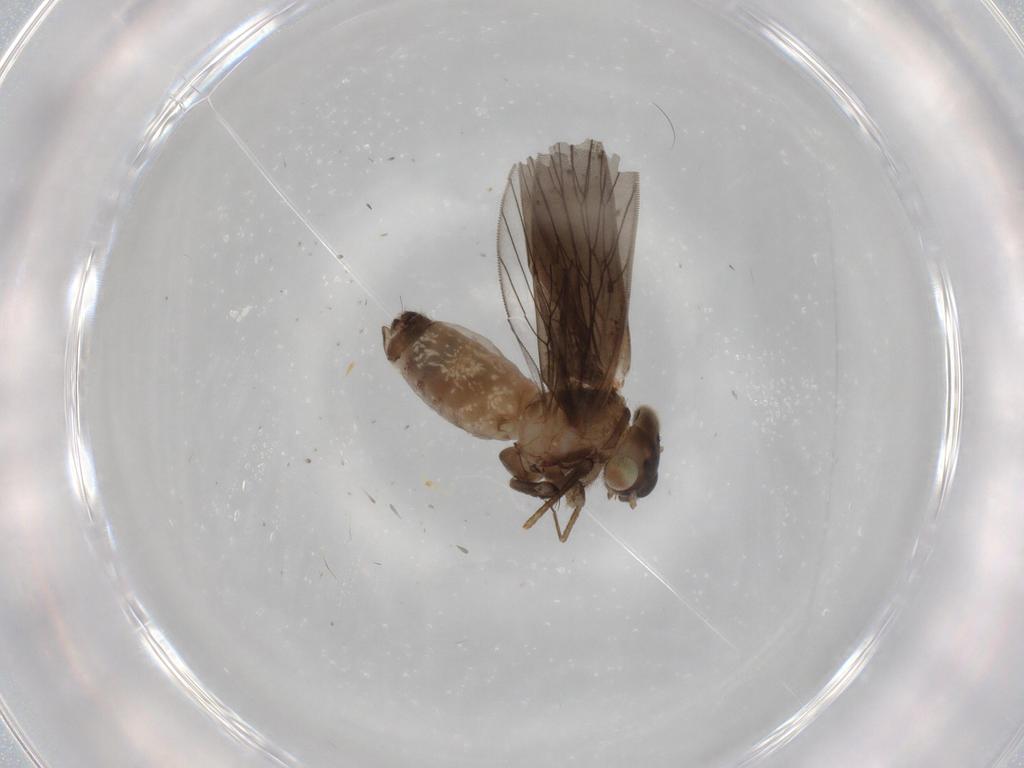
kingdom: Animalia
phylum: Arthropoda
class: Insecta
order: Psocodea
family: Lepidopsocidae
